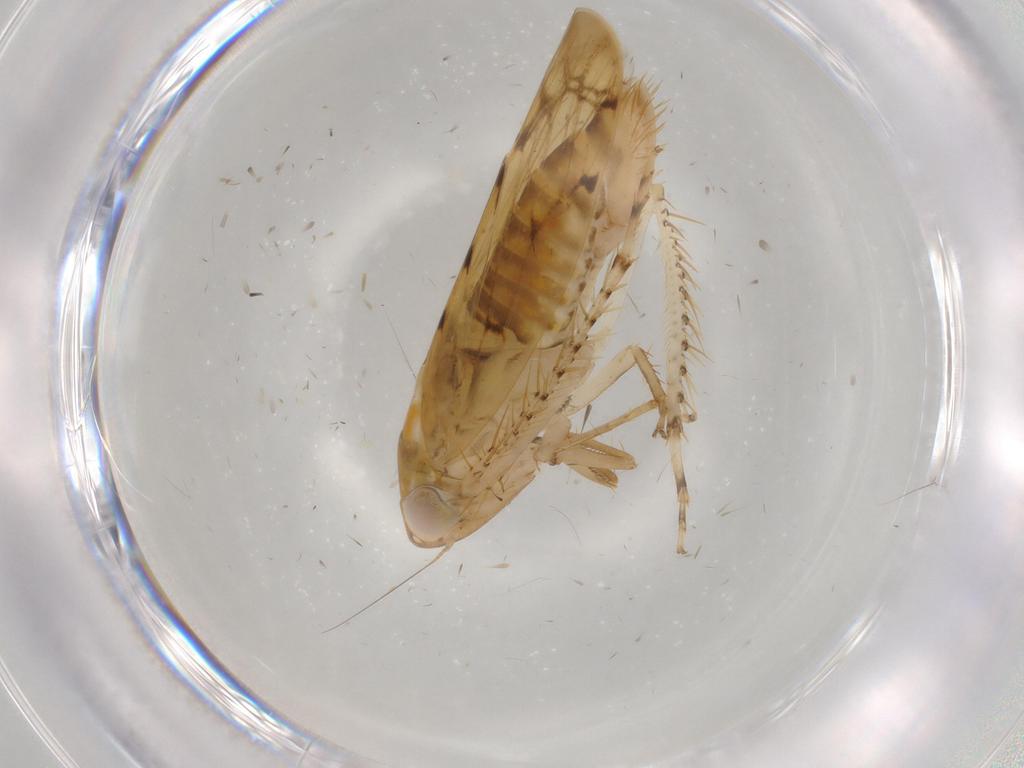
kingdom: Animalia
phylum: Arthropoda
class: Insecta
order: Hemiptera
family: Cicadellidae
